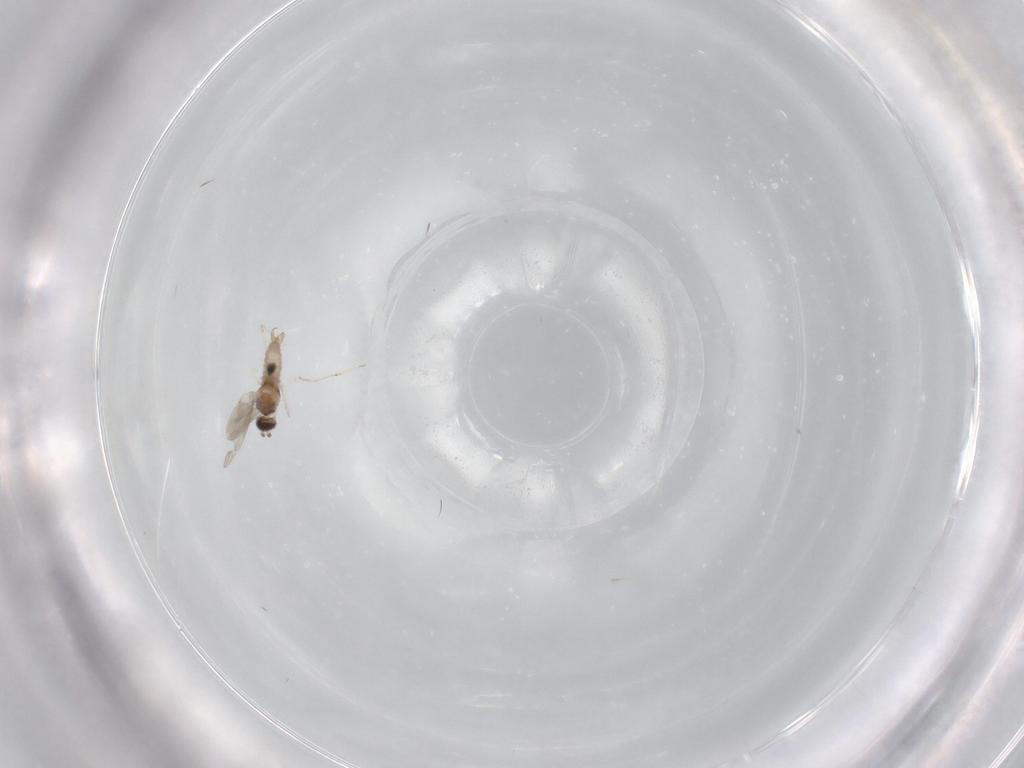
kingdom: Animalia
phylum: Arthropoda
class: Insecta
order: Diptera
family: Cecidomyiidae
